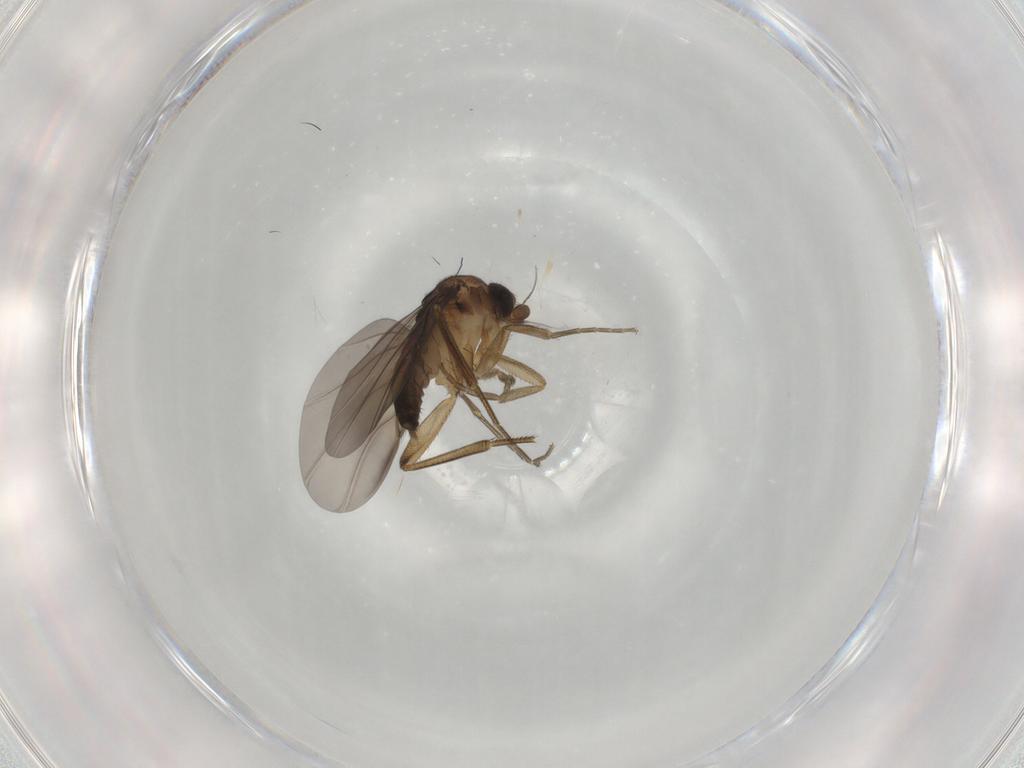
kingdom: Animalia
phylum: Arthropoda
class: Insecta
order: Diptera
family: Phoridae
